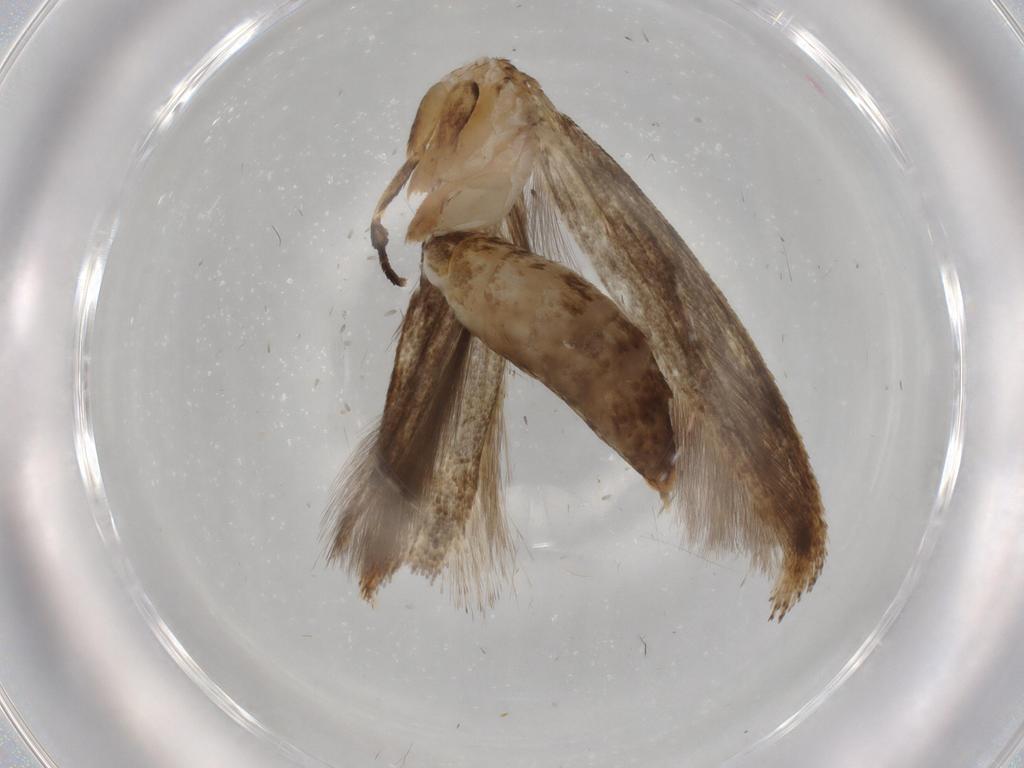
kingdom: Animalia
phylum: Arthropoda
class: Insecta
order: Lepidoptera
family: Tineidae
